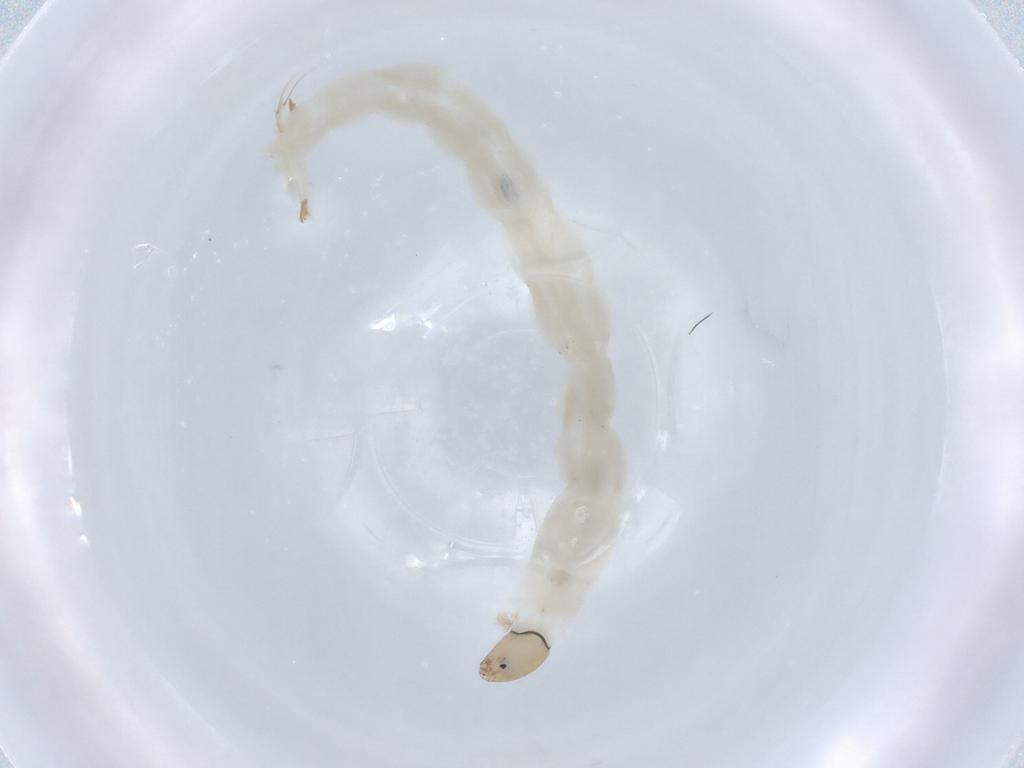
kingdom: Animalia
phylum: Arthropoda
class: Insecta
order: Diptera
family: Chironomidae
